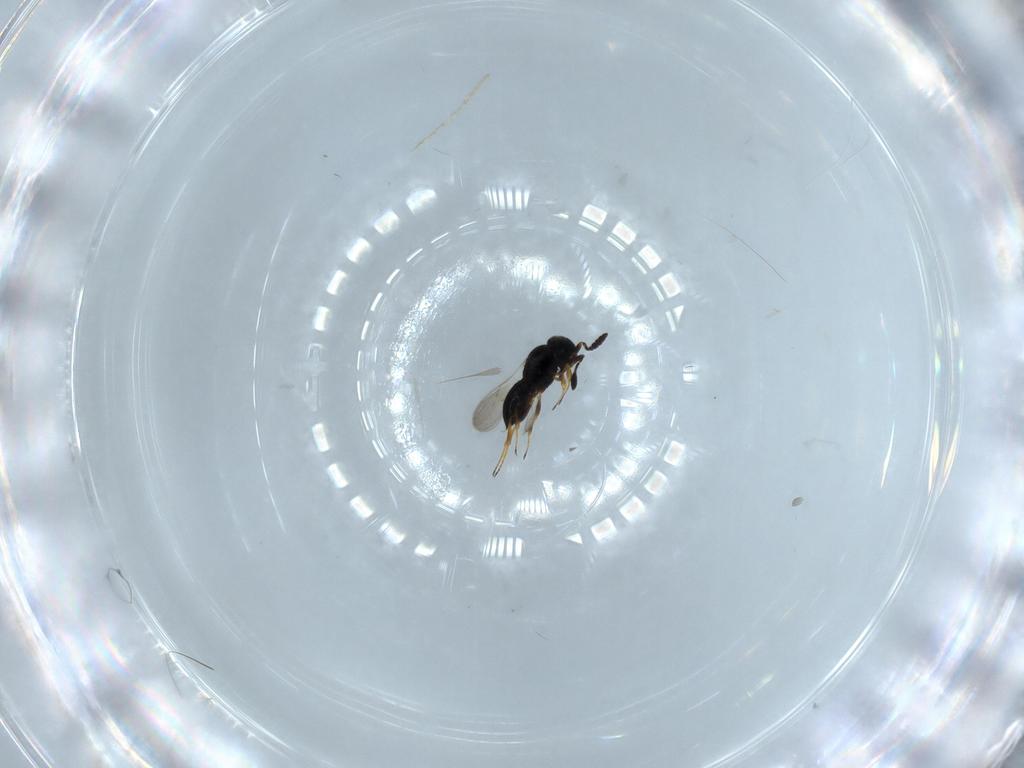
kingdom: Animalia
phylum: Arthropoda
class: Insecta
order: Hymenoptera
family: Scelionidae
